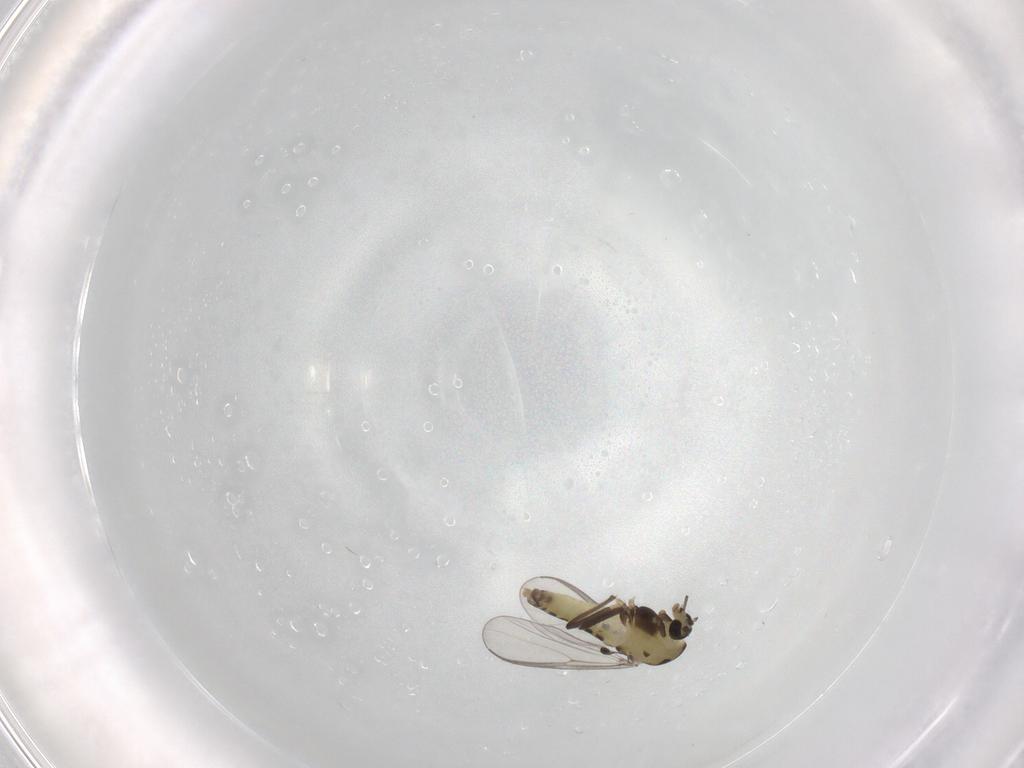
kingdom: Animalia
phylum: Arthropoda
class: Insecta
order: Diptera
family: Chironomidae
